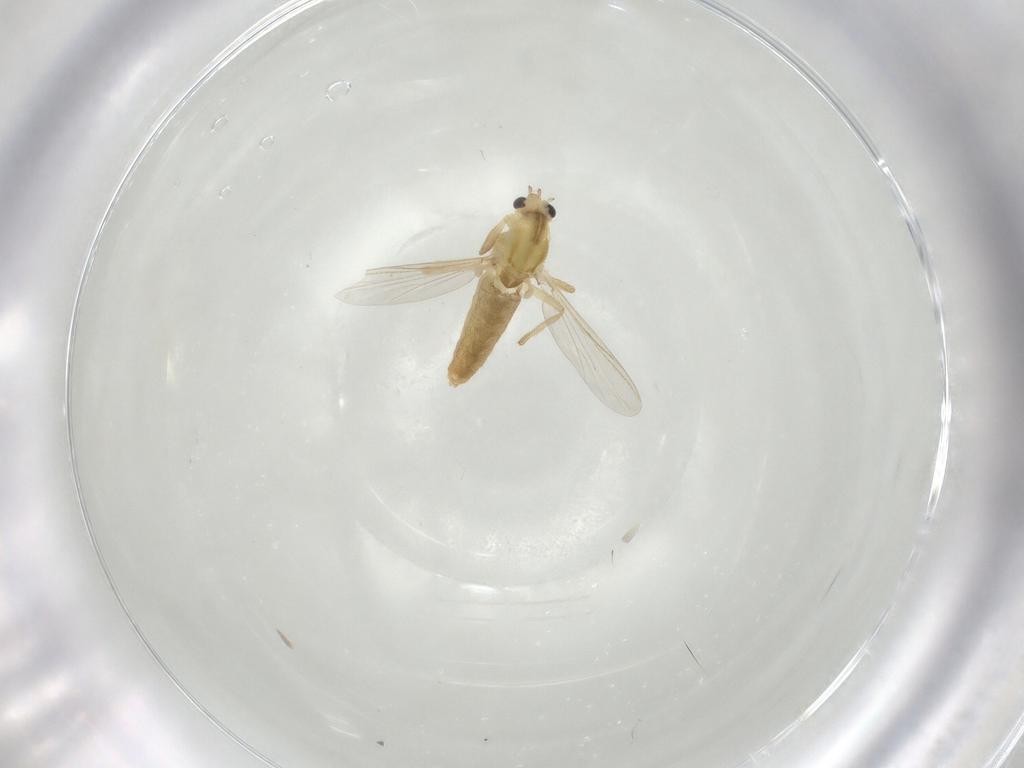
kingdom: Animalia
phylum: Arthropoda
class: Insecta
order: Diptera
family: Chironomidae
